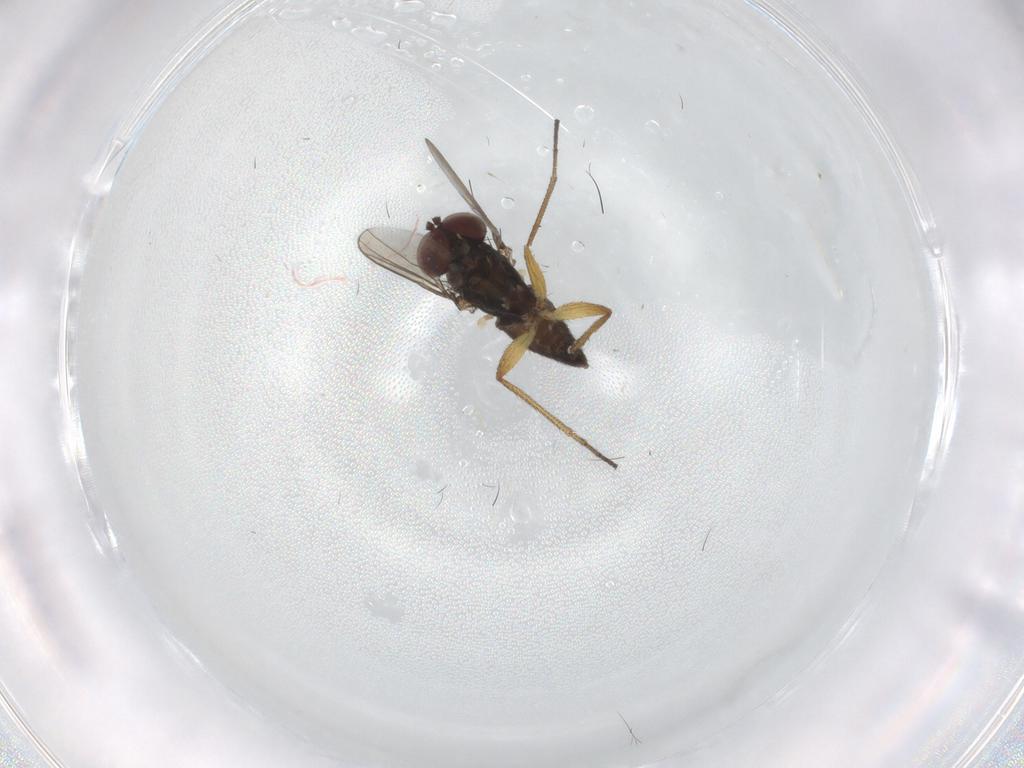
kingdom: Animalia
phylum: Arthropoda
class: Insecta
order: Diptera
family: Dolichopodidae
